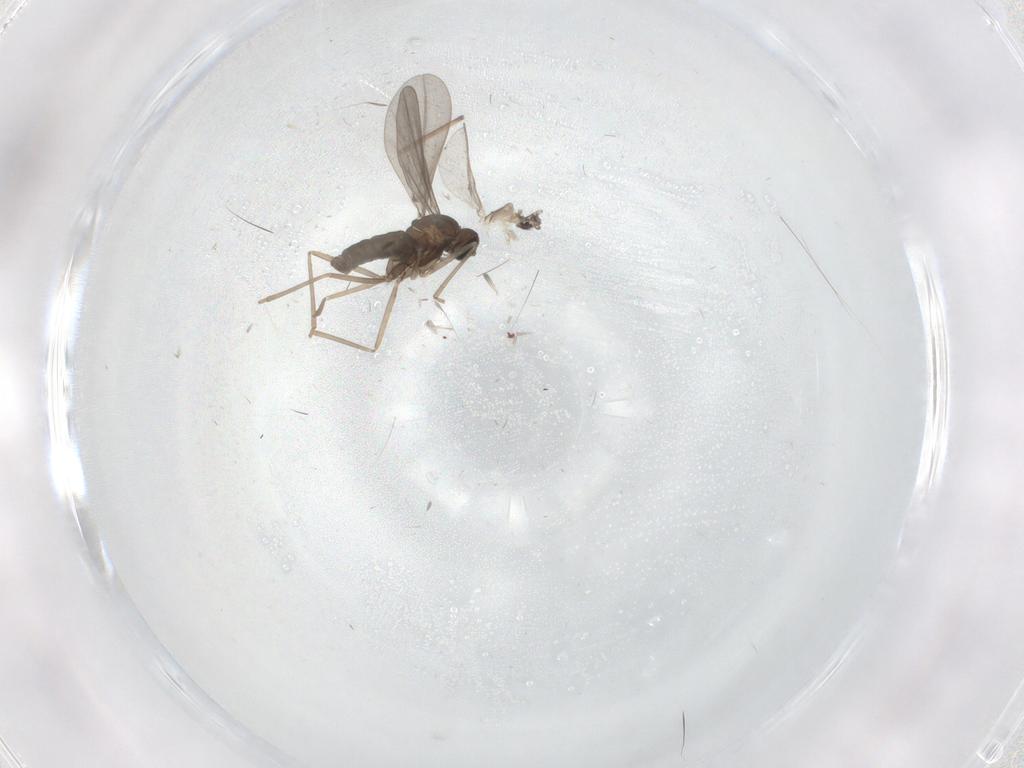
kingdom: Animalia
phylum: Arthropoda
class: Insecta
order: Diptera
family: Cecidomyiidae
